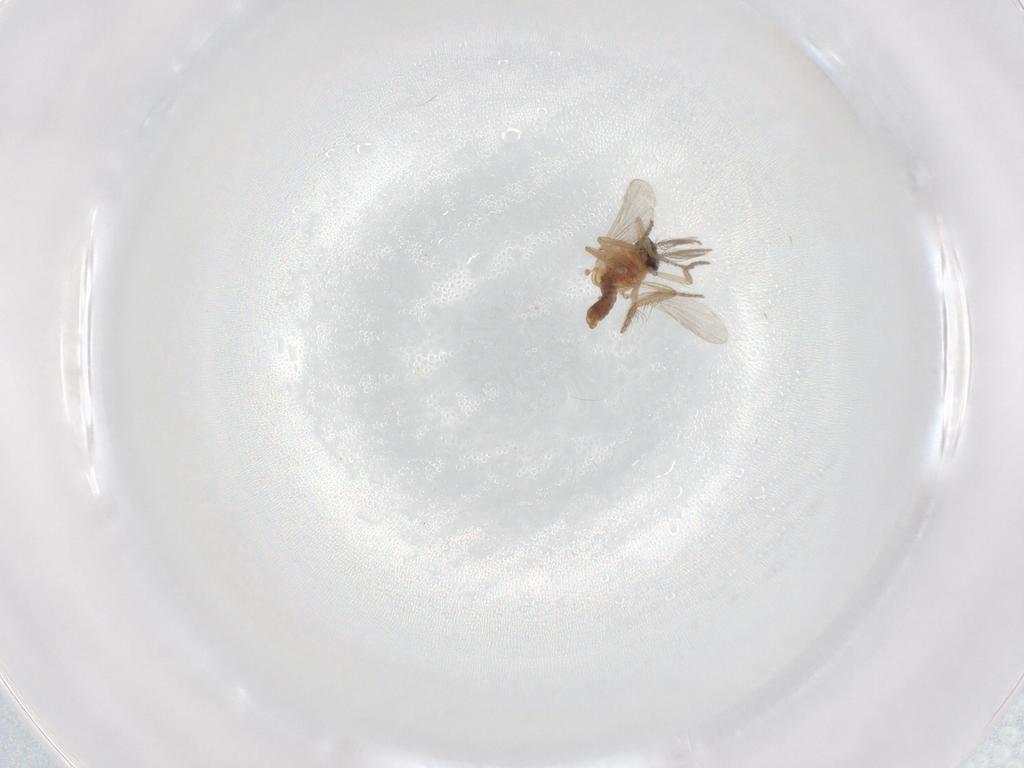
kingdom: Animalia
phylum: Arthropoda
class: Insecta
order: Diptera
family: Ceratopogonidae
